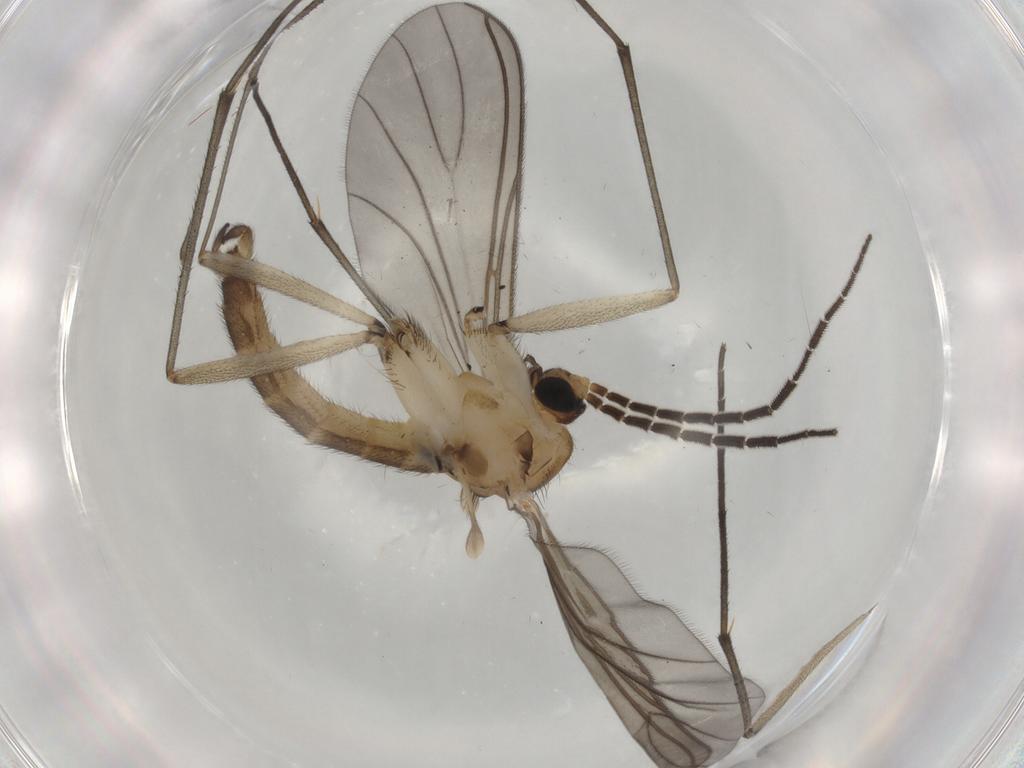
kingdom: Animalia
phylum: Arthropoda
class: Insecta
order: Diptera
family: Sciaridae
